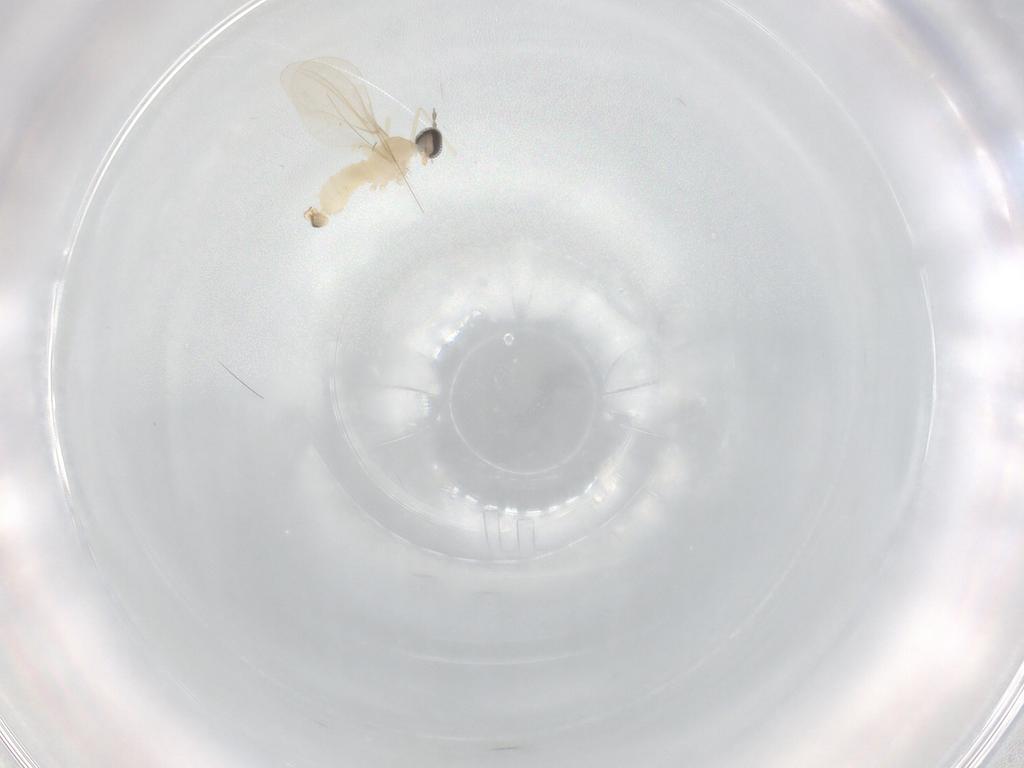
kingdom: Animalia
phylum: Arthropoda
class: Insecta
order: Diptera
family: Cecidomyiidae
